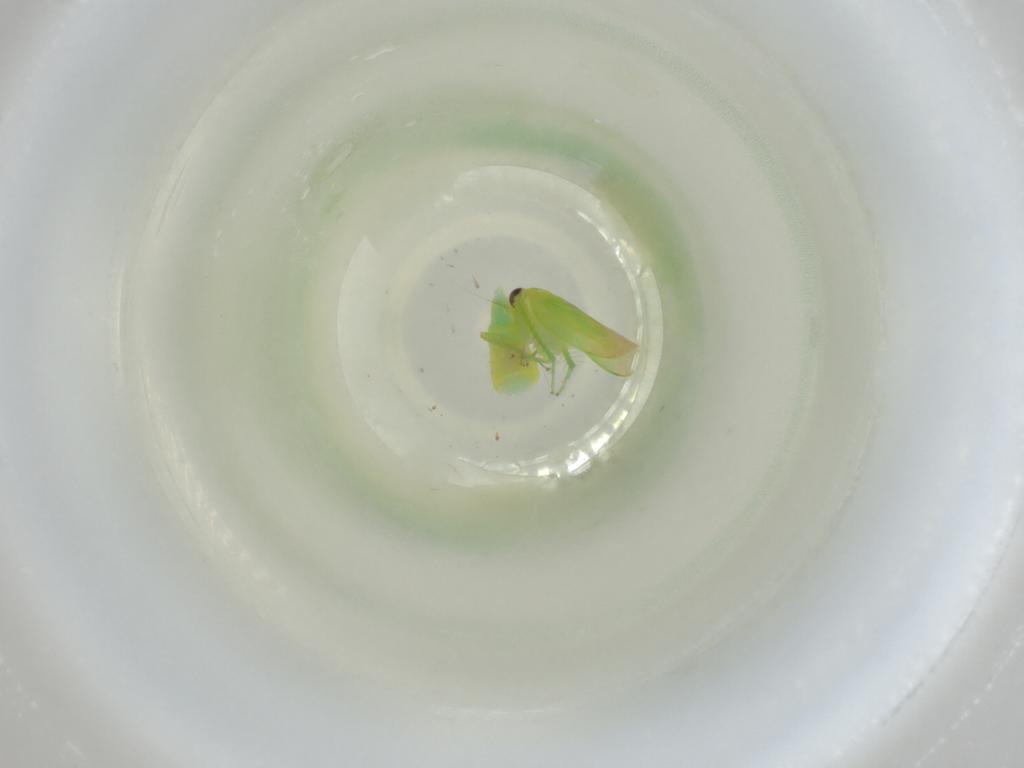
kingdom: Animalia
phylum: Arthropoda
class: Insecta
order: Hemiptera
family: Cicadellidae
